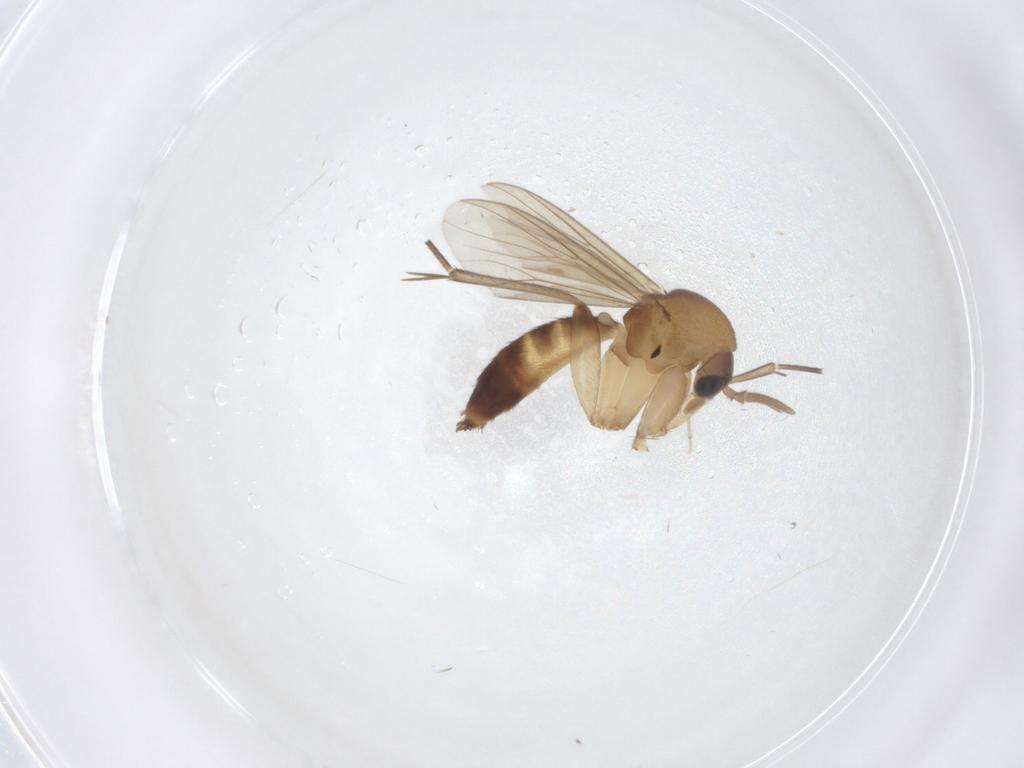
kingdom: Animalia
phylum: Arthropoda
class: Insecta
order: Diptera
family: Mycetophilidae
